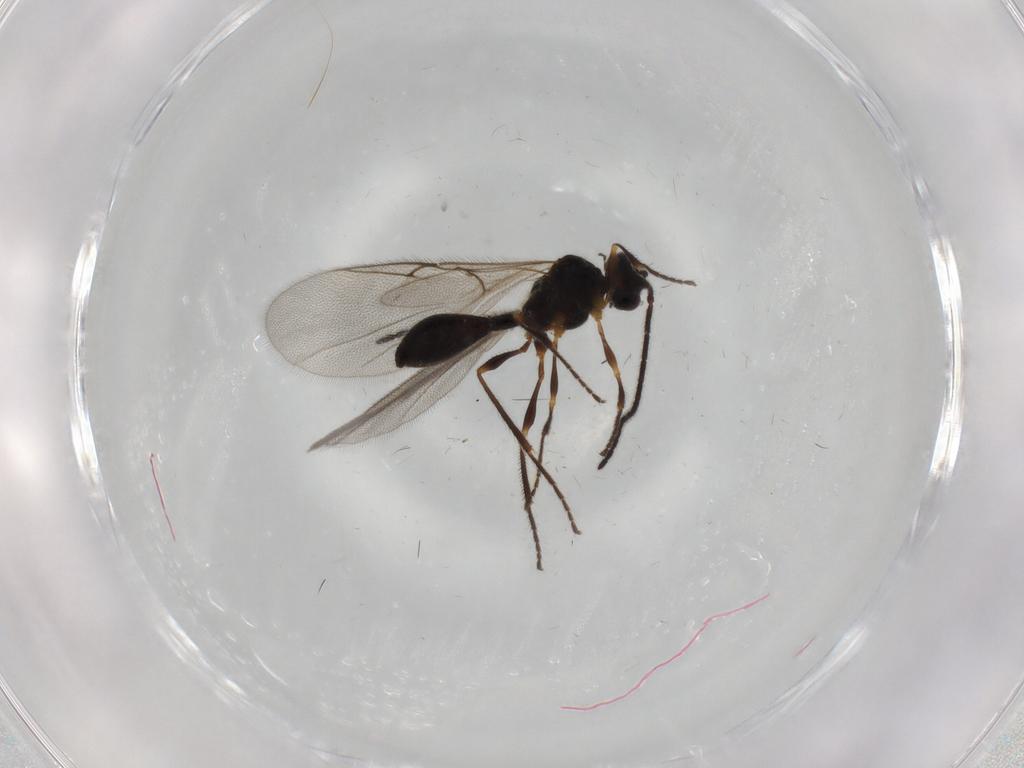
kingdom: Animalia
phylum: Arthropoda
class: Insecta
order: Hymenoptera
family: Diapriidae
